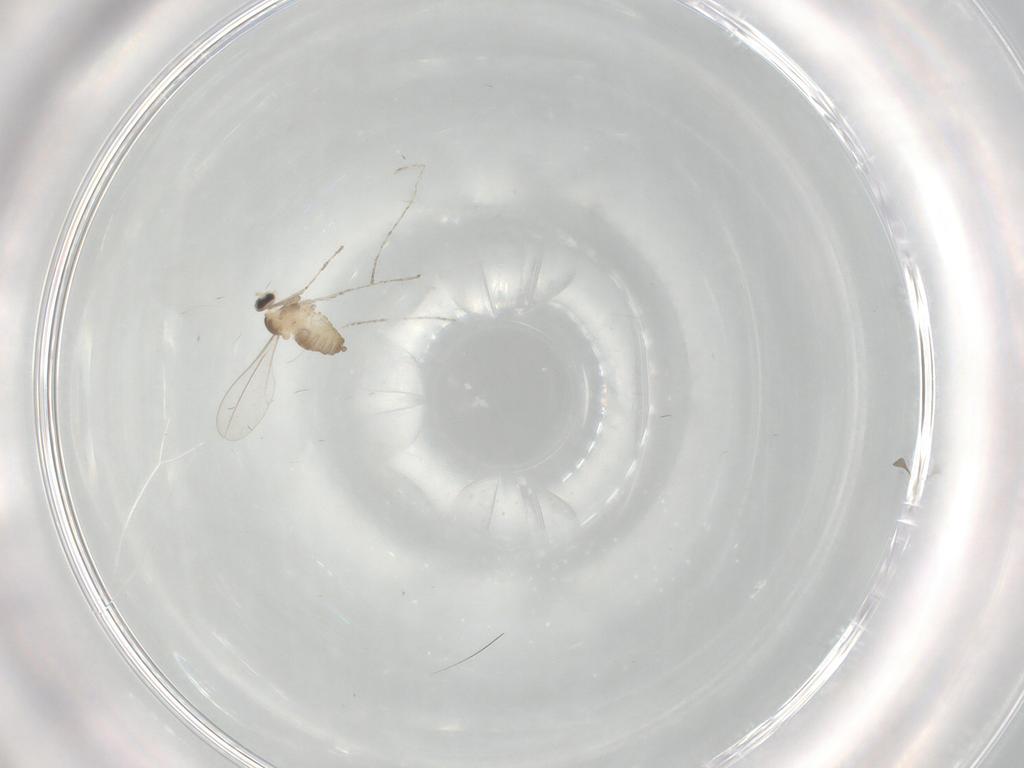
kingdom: Animalia
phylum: Arthropoda
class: Insecta
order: Diptera
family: Cecidomyiidae
